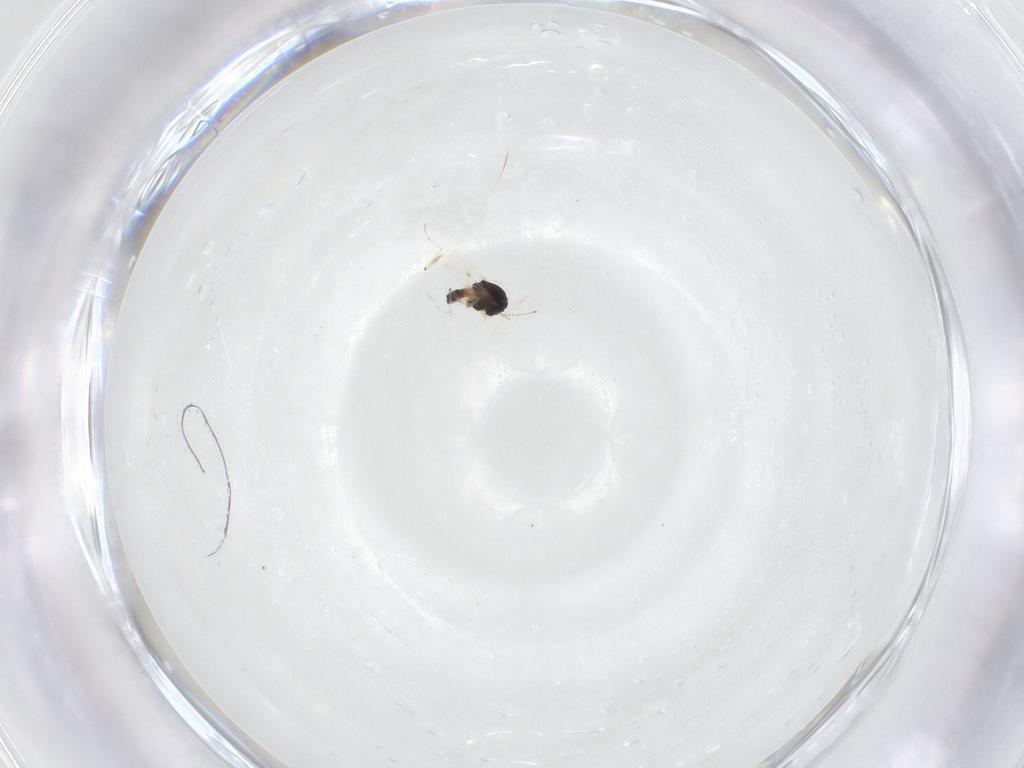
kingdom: Animalia
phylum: Arthropoda
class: Insecta
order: Diptera
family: Chironomidae
